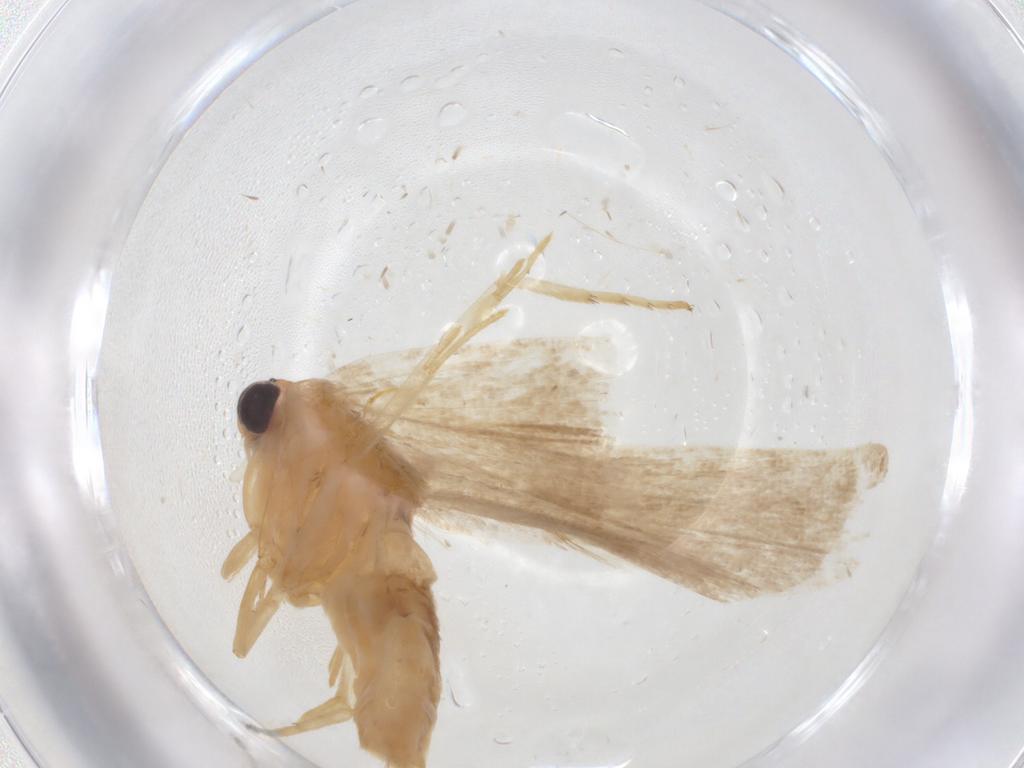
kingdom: Animalia
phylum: Arthropoda
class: Insecta
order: Lepidoptera
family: Tortricidae
